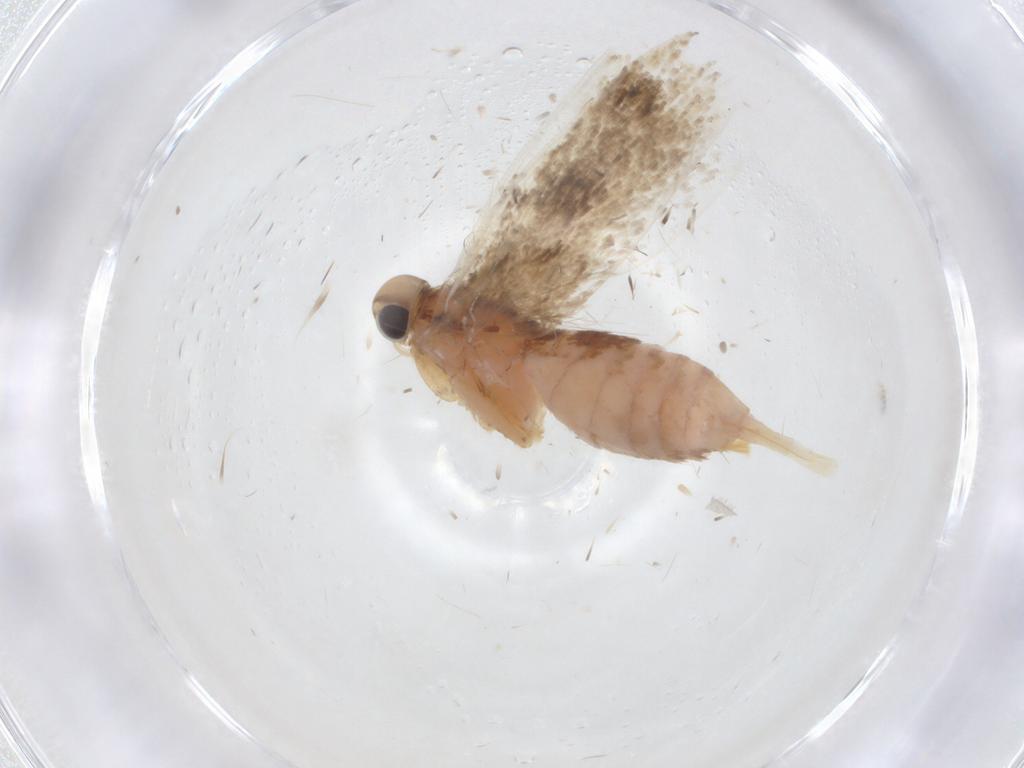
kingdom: Animalia
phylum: Arthropoda
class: Insecta
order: Lepidoptera
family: Gelechiidae
